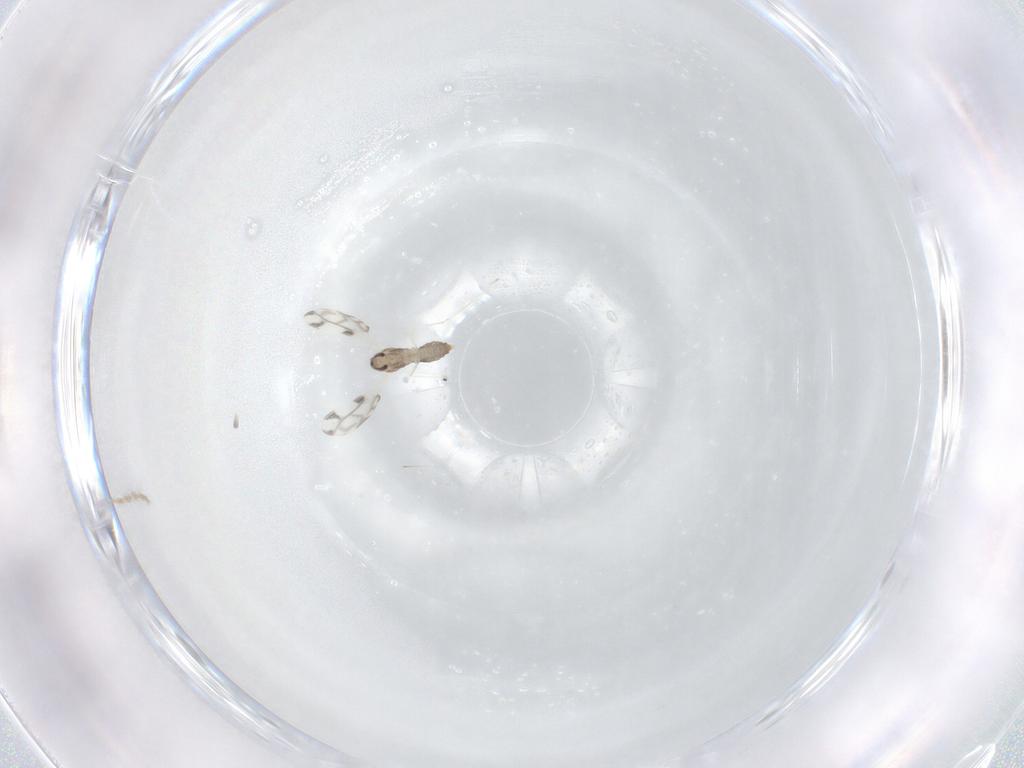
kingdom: Animalia
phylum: Arthropoda
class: Insecta
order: Diptera
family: Cecidomyiidae
